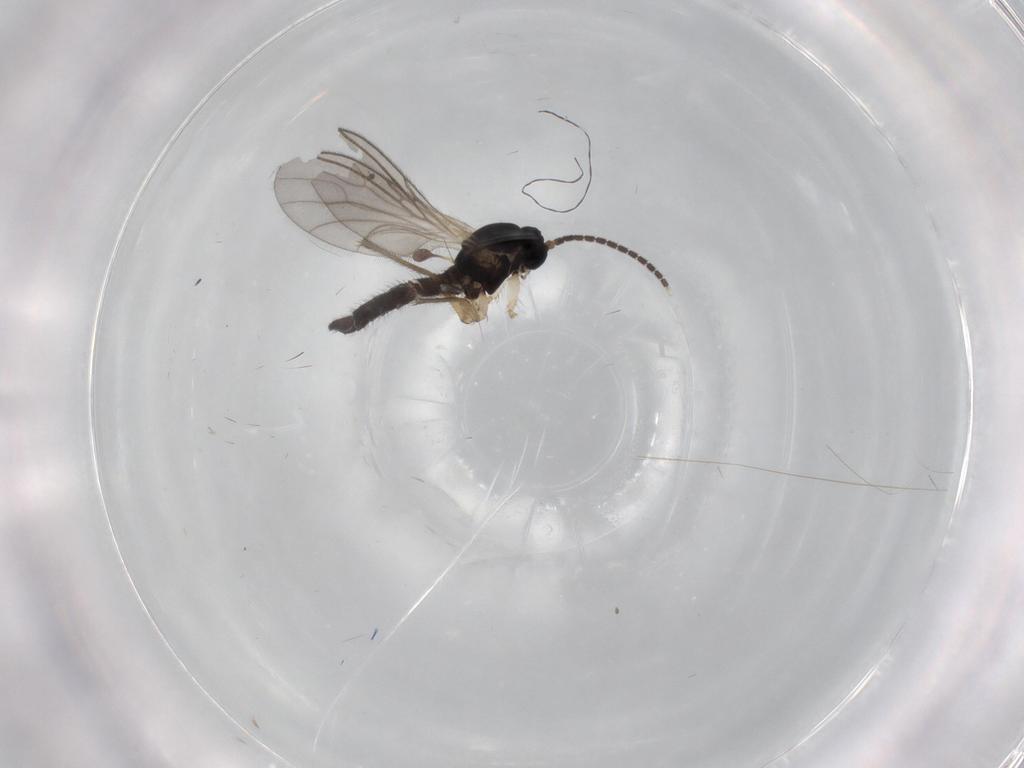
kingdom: Animalia
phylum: Arthropoda
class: Insecta
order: Diptera
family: Sciaridae
